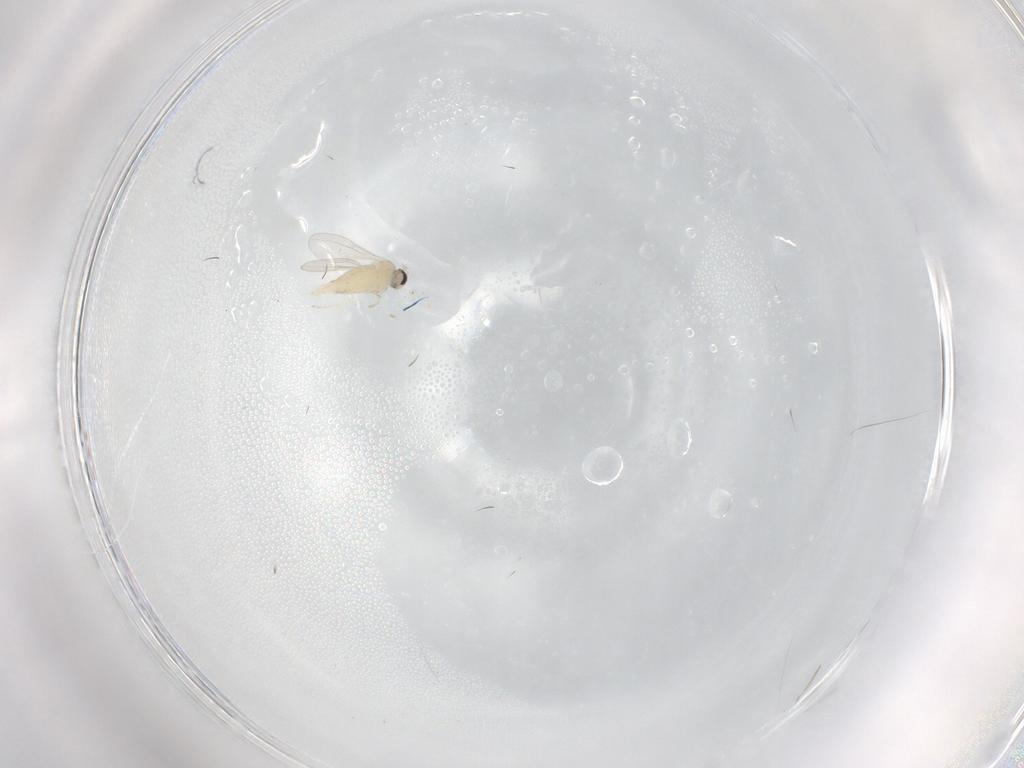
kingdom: Animalia
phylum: Arthropoda
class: Insecta
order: Diptera
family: Cecidomyiidae
